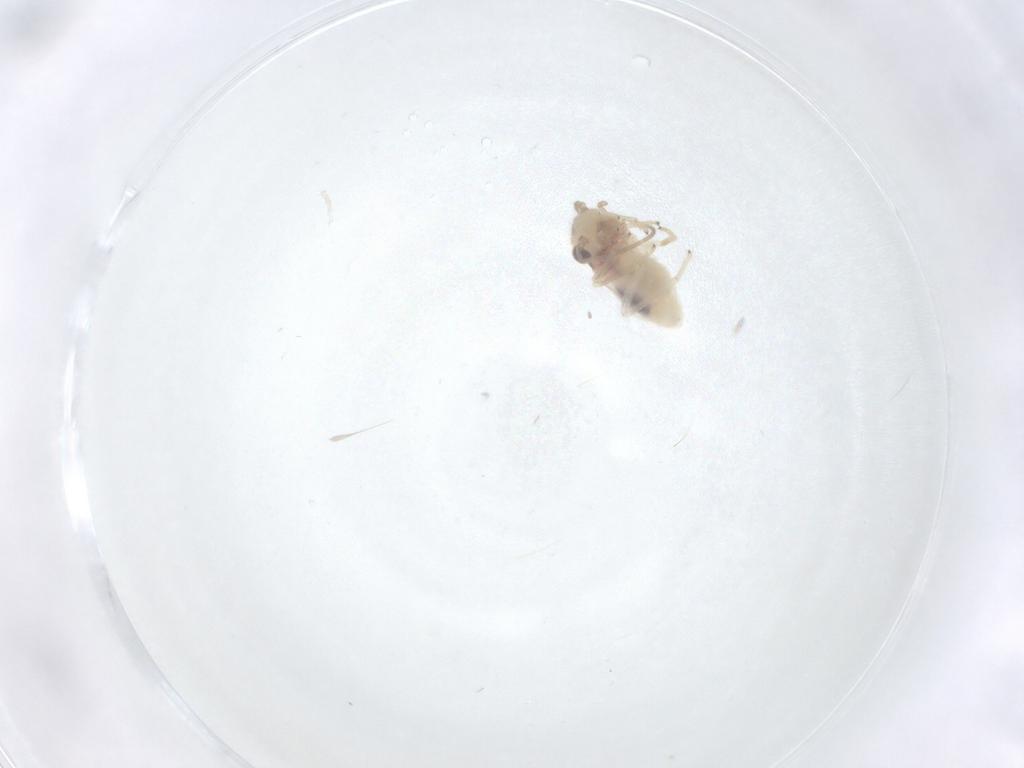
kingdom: Animalia
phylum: Arthropoda
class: Insecta
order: Psocodea
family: Caeciliusidae
